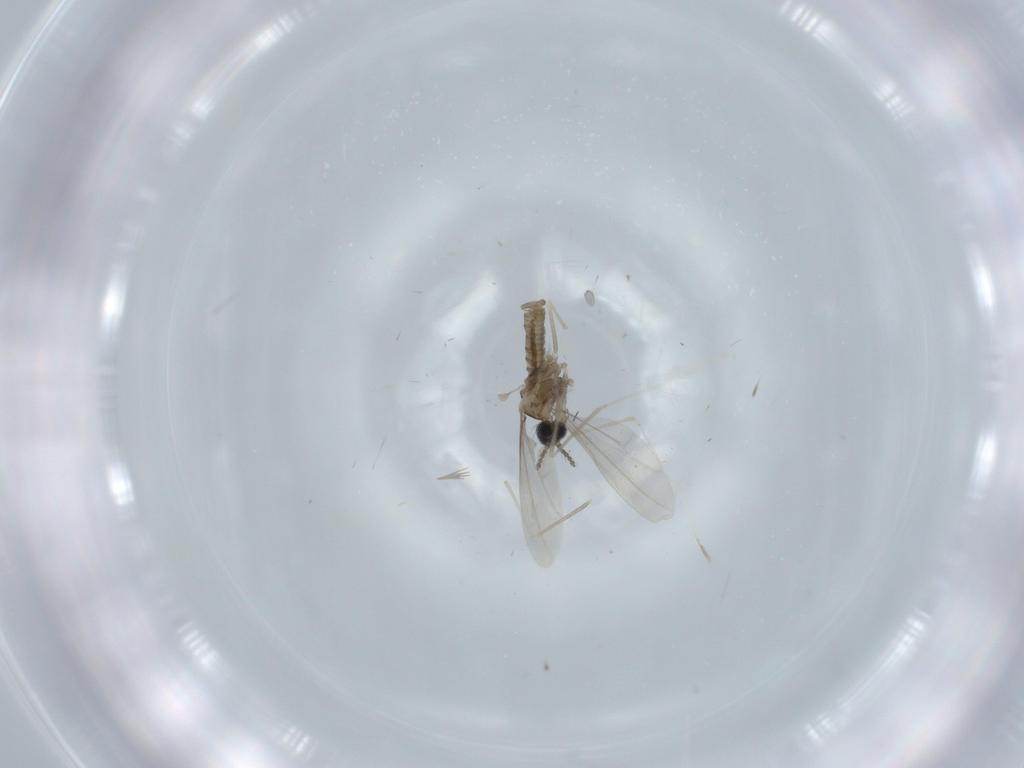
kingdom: Animalia
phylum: Arthropoda
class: Insecta
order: Diptera
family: Cecidomyiidae
